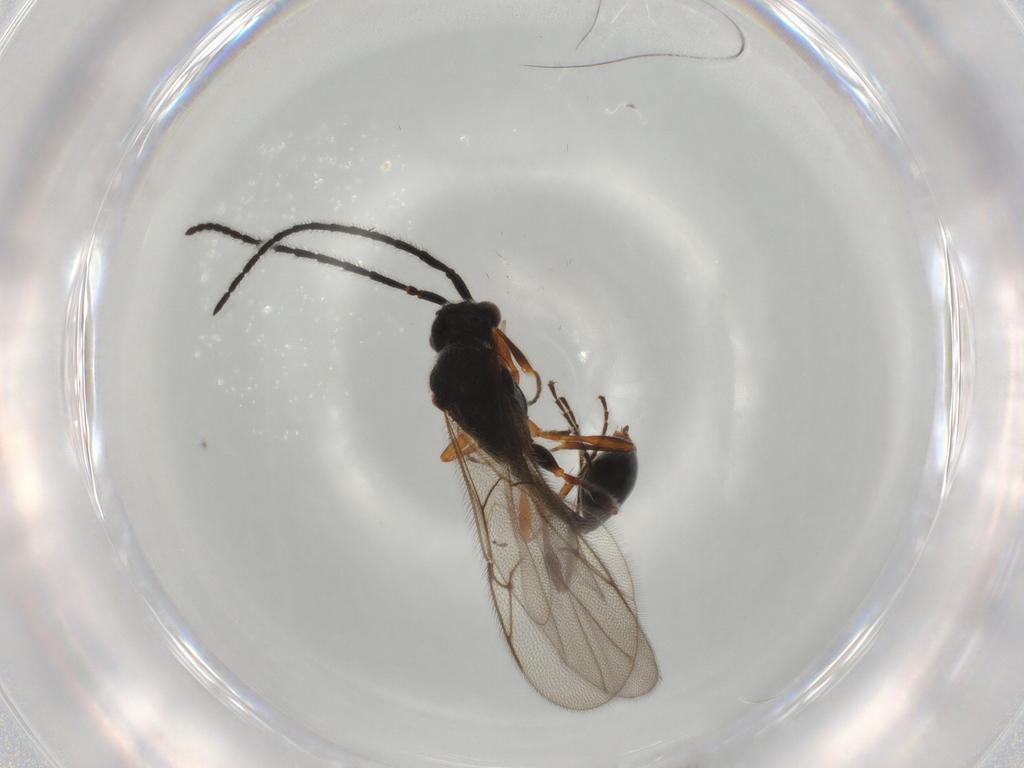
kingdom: Animalia
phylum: Arthropoda
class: Insecta
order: Hymenoptera
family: Diapriidae
